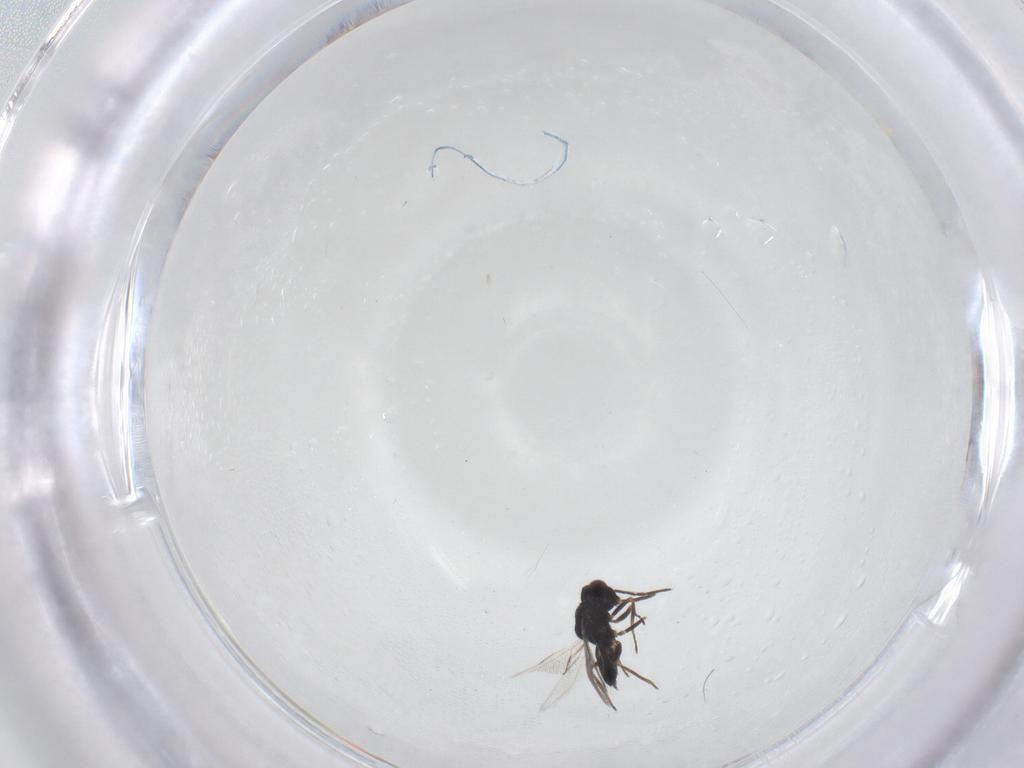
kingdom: Animalia
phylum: Arthropoda
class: Insecta
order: Hymenoptera
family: Eulophidae
